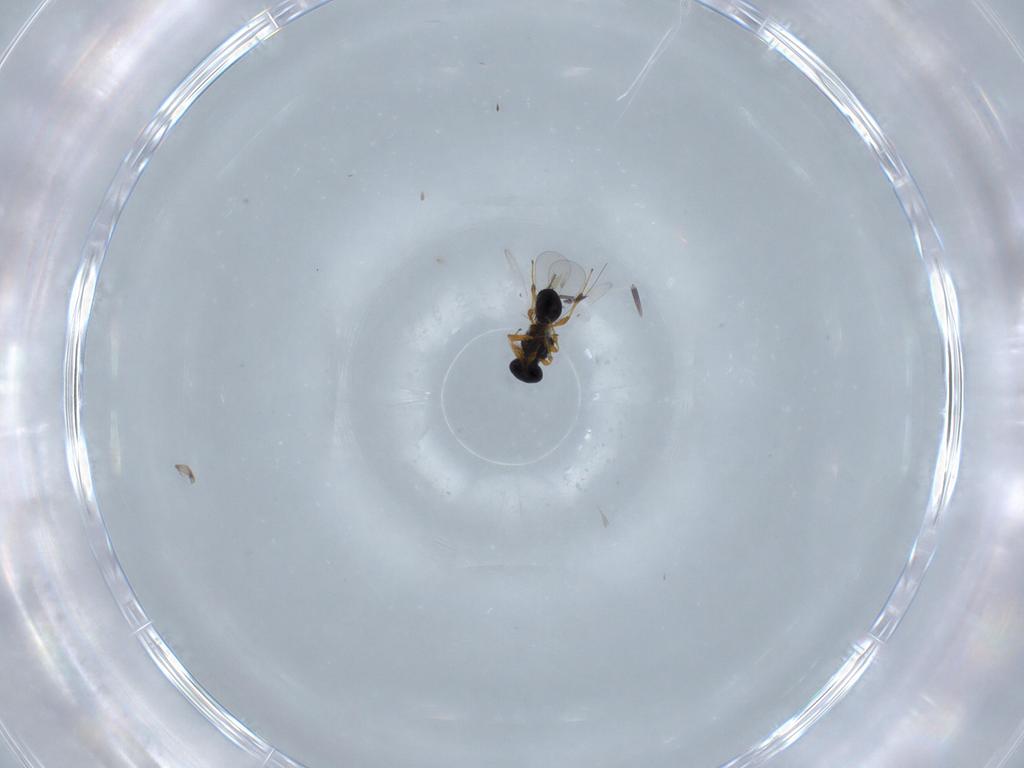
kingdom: Animalia
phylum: Arthropoda
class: Insecta
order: Hymenoptera
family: Platygastridae
